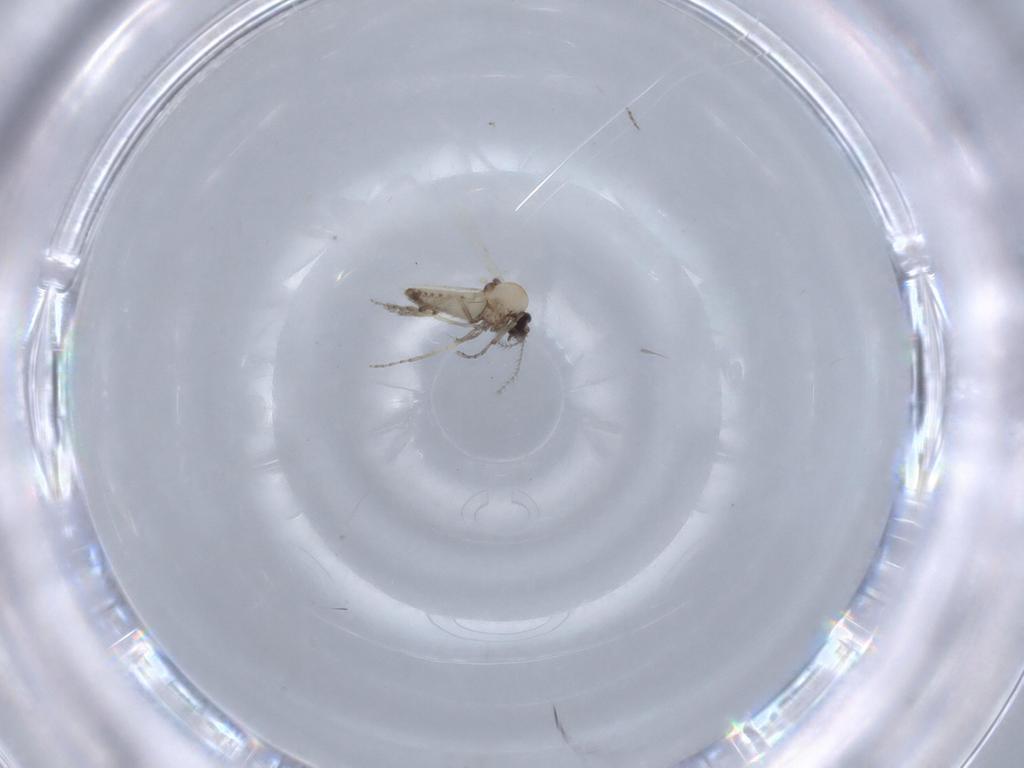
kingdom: Animalia
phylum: Arthropoda
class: Insecta
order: Diptera
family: Ceratopogonidae
